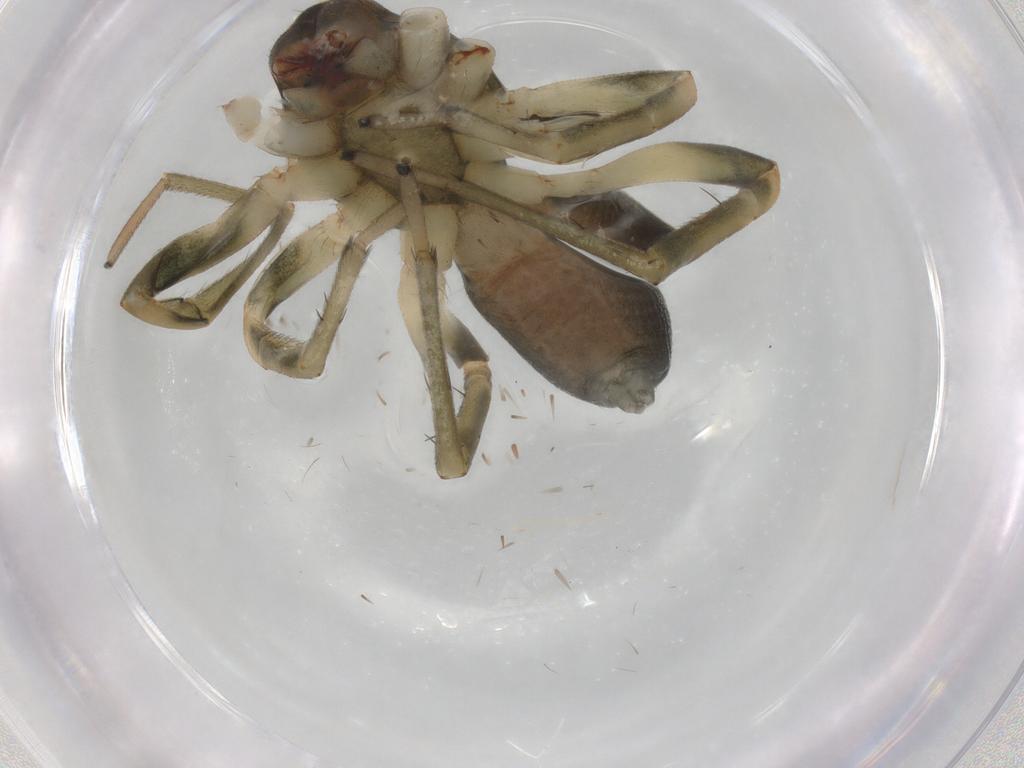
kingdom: Animalia
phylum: Arthropoda
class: Arachnida
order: Araneae
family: Trachelidae
